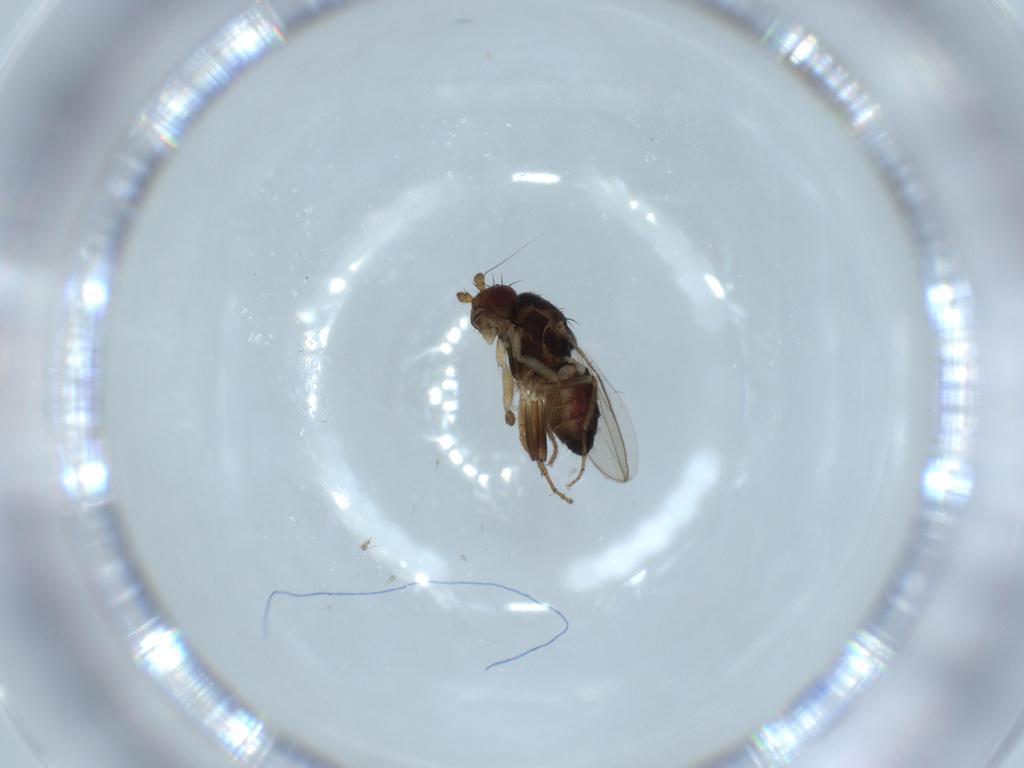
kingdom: Animalia
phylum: Arthropoda
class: Insecta
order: Diptera
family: Sphaeroceridae
